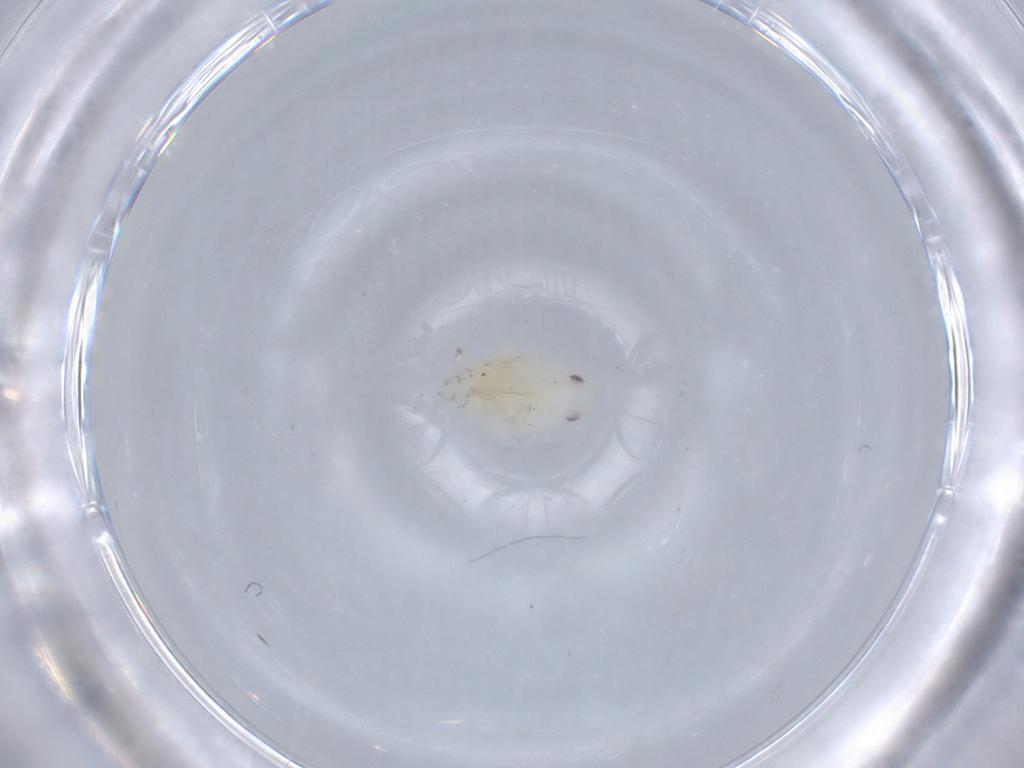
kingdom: Animalia
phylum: Arthropoda
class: Insecta
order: Hemiptera
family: Flatidae
